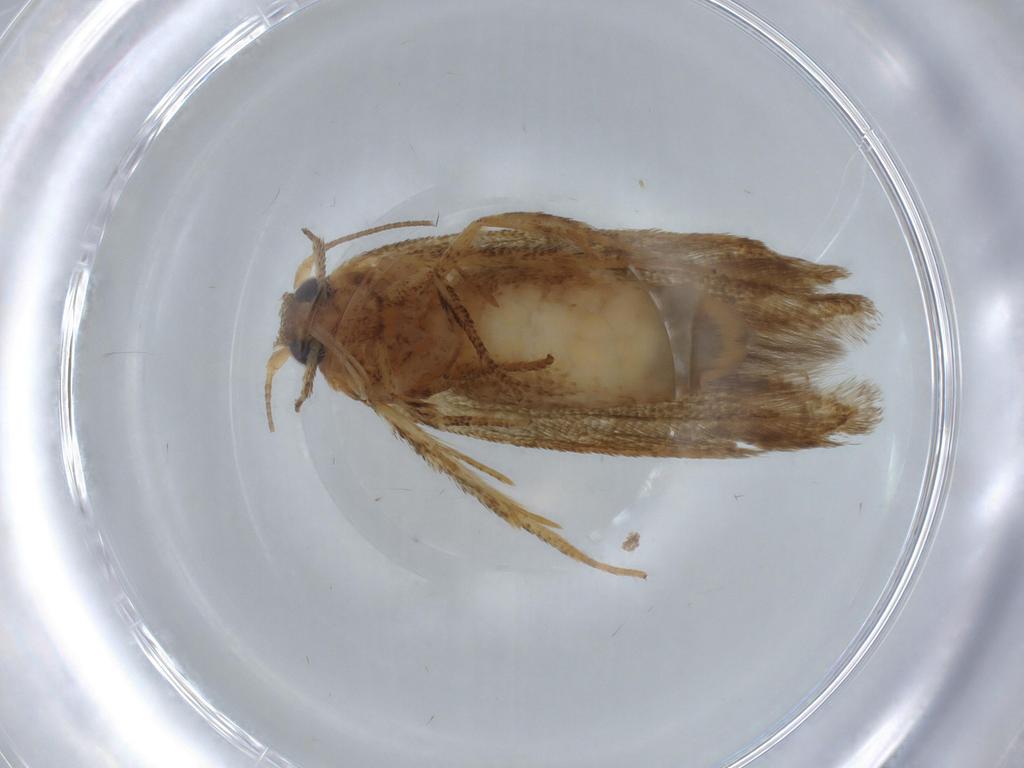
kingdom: Animalia
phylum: Arthropoda
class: Insecta
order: Lepidoptera
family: Blastobasidae
